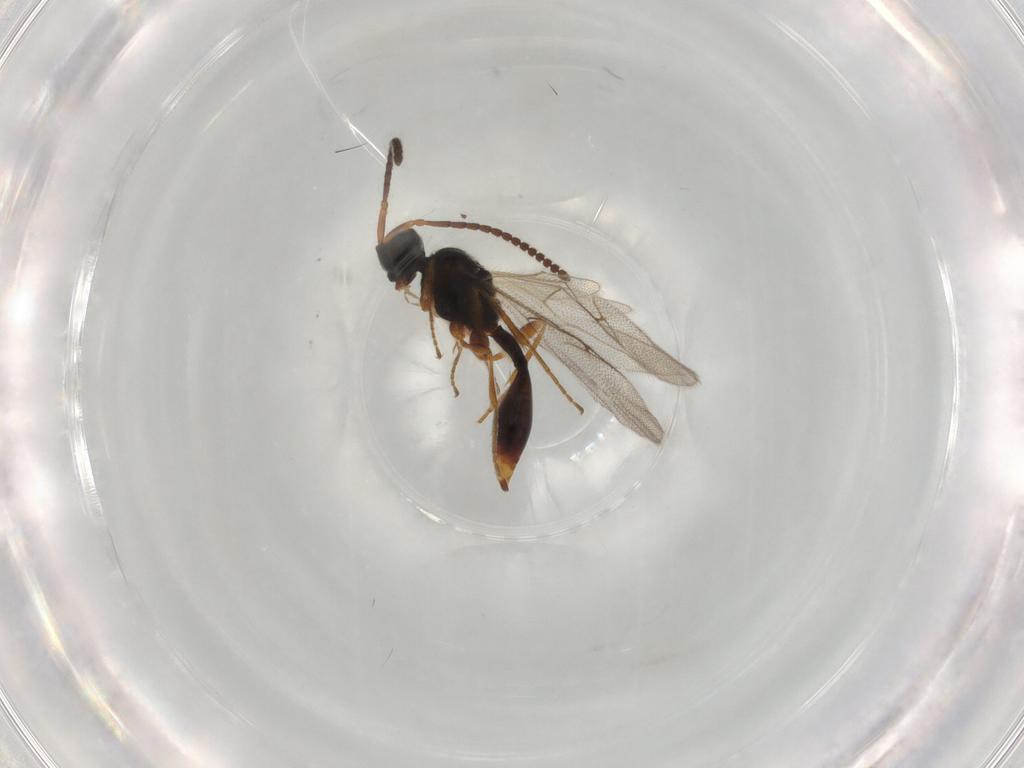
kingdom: Animalia
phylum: Arthropoda
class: Insecta
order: Hymenoptera
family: Diapriidae
